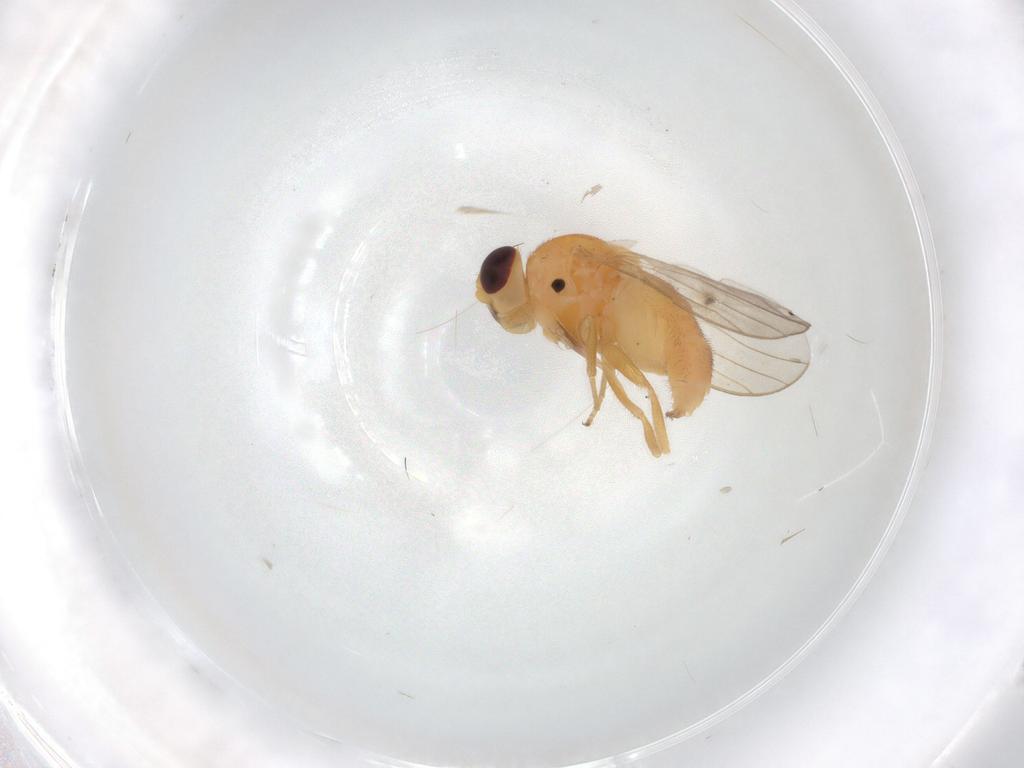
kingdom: Animalia
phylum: Arthropoda
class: Insecta
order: Diptera
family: Chloropidae
